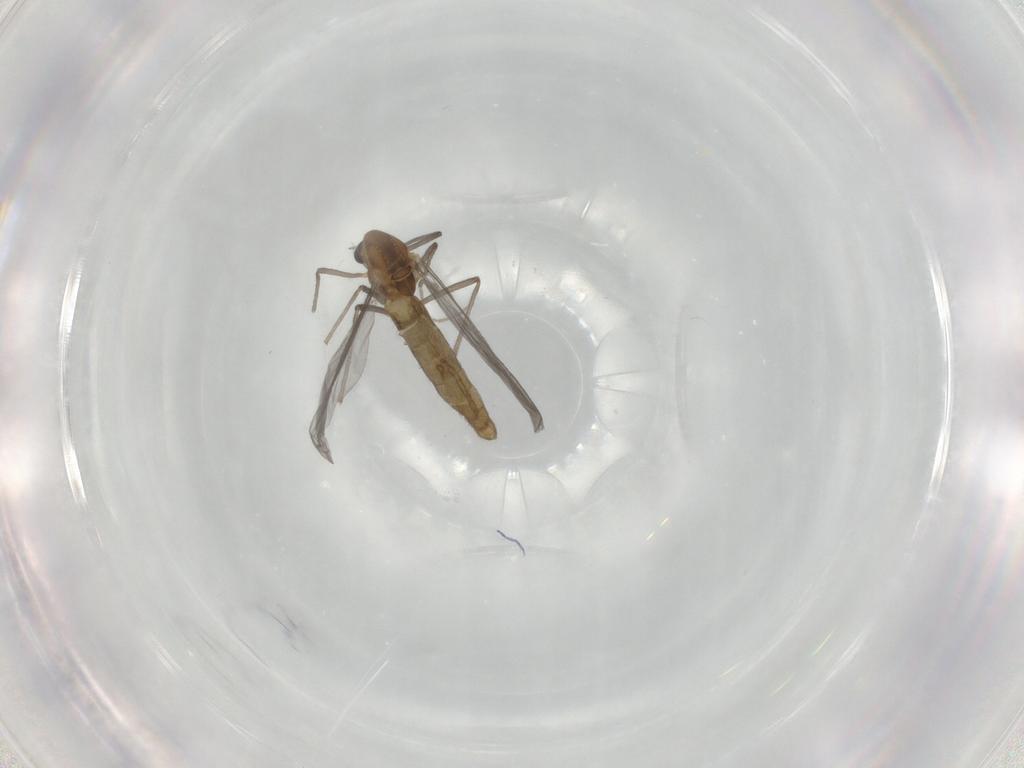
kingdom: Animalia
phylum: Arthropoda
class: Insecta
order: Diptera
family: Chironomidae
